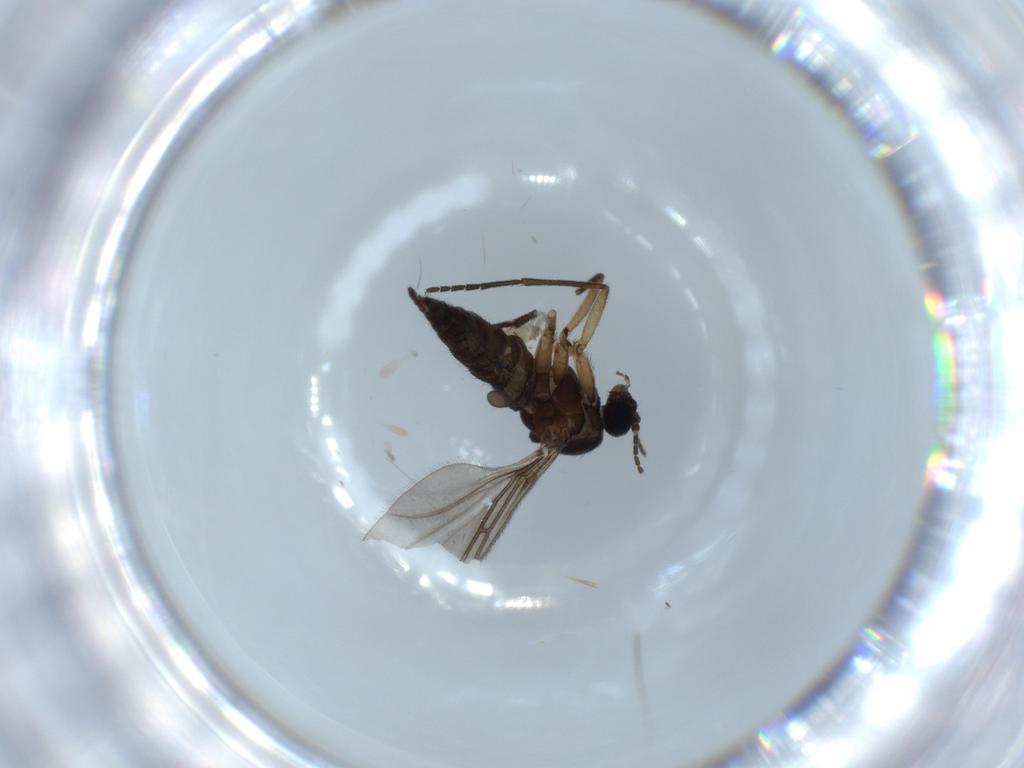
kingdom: Animalia
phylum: Arthropoda
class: Insecta
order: Diptera
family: Sciaridae
